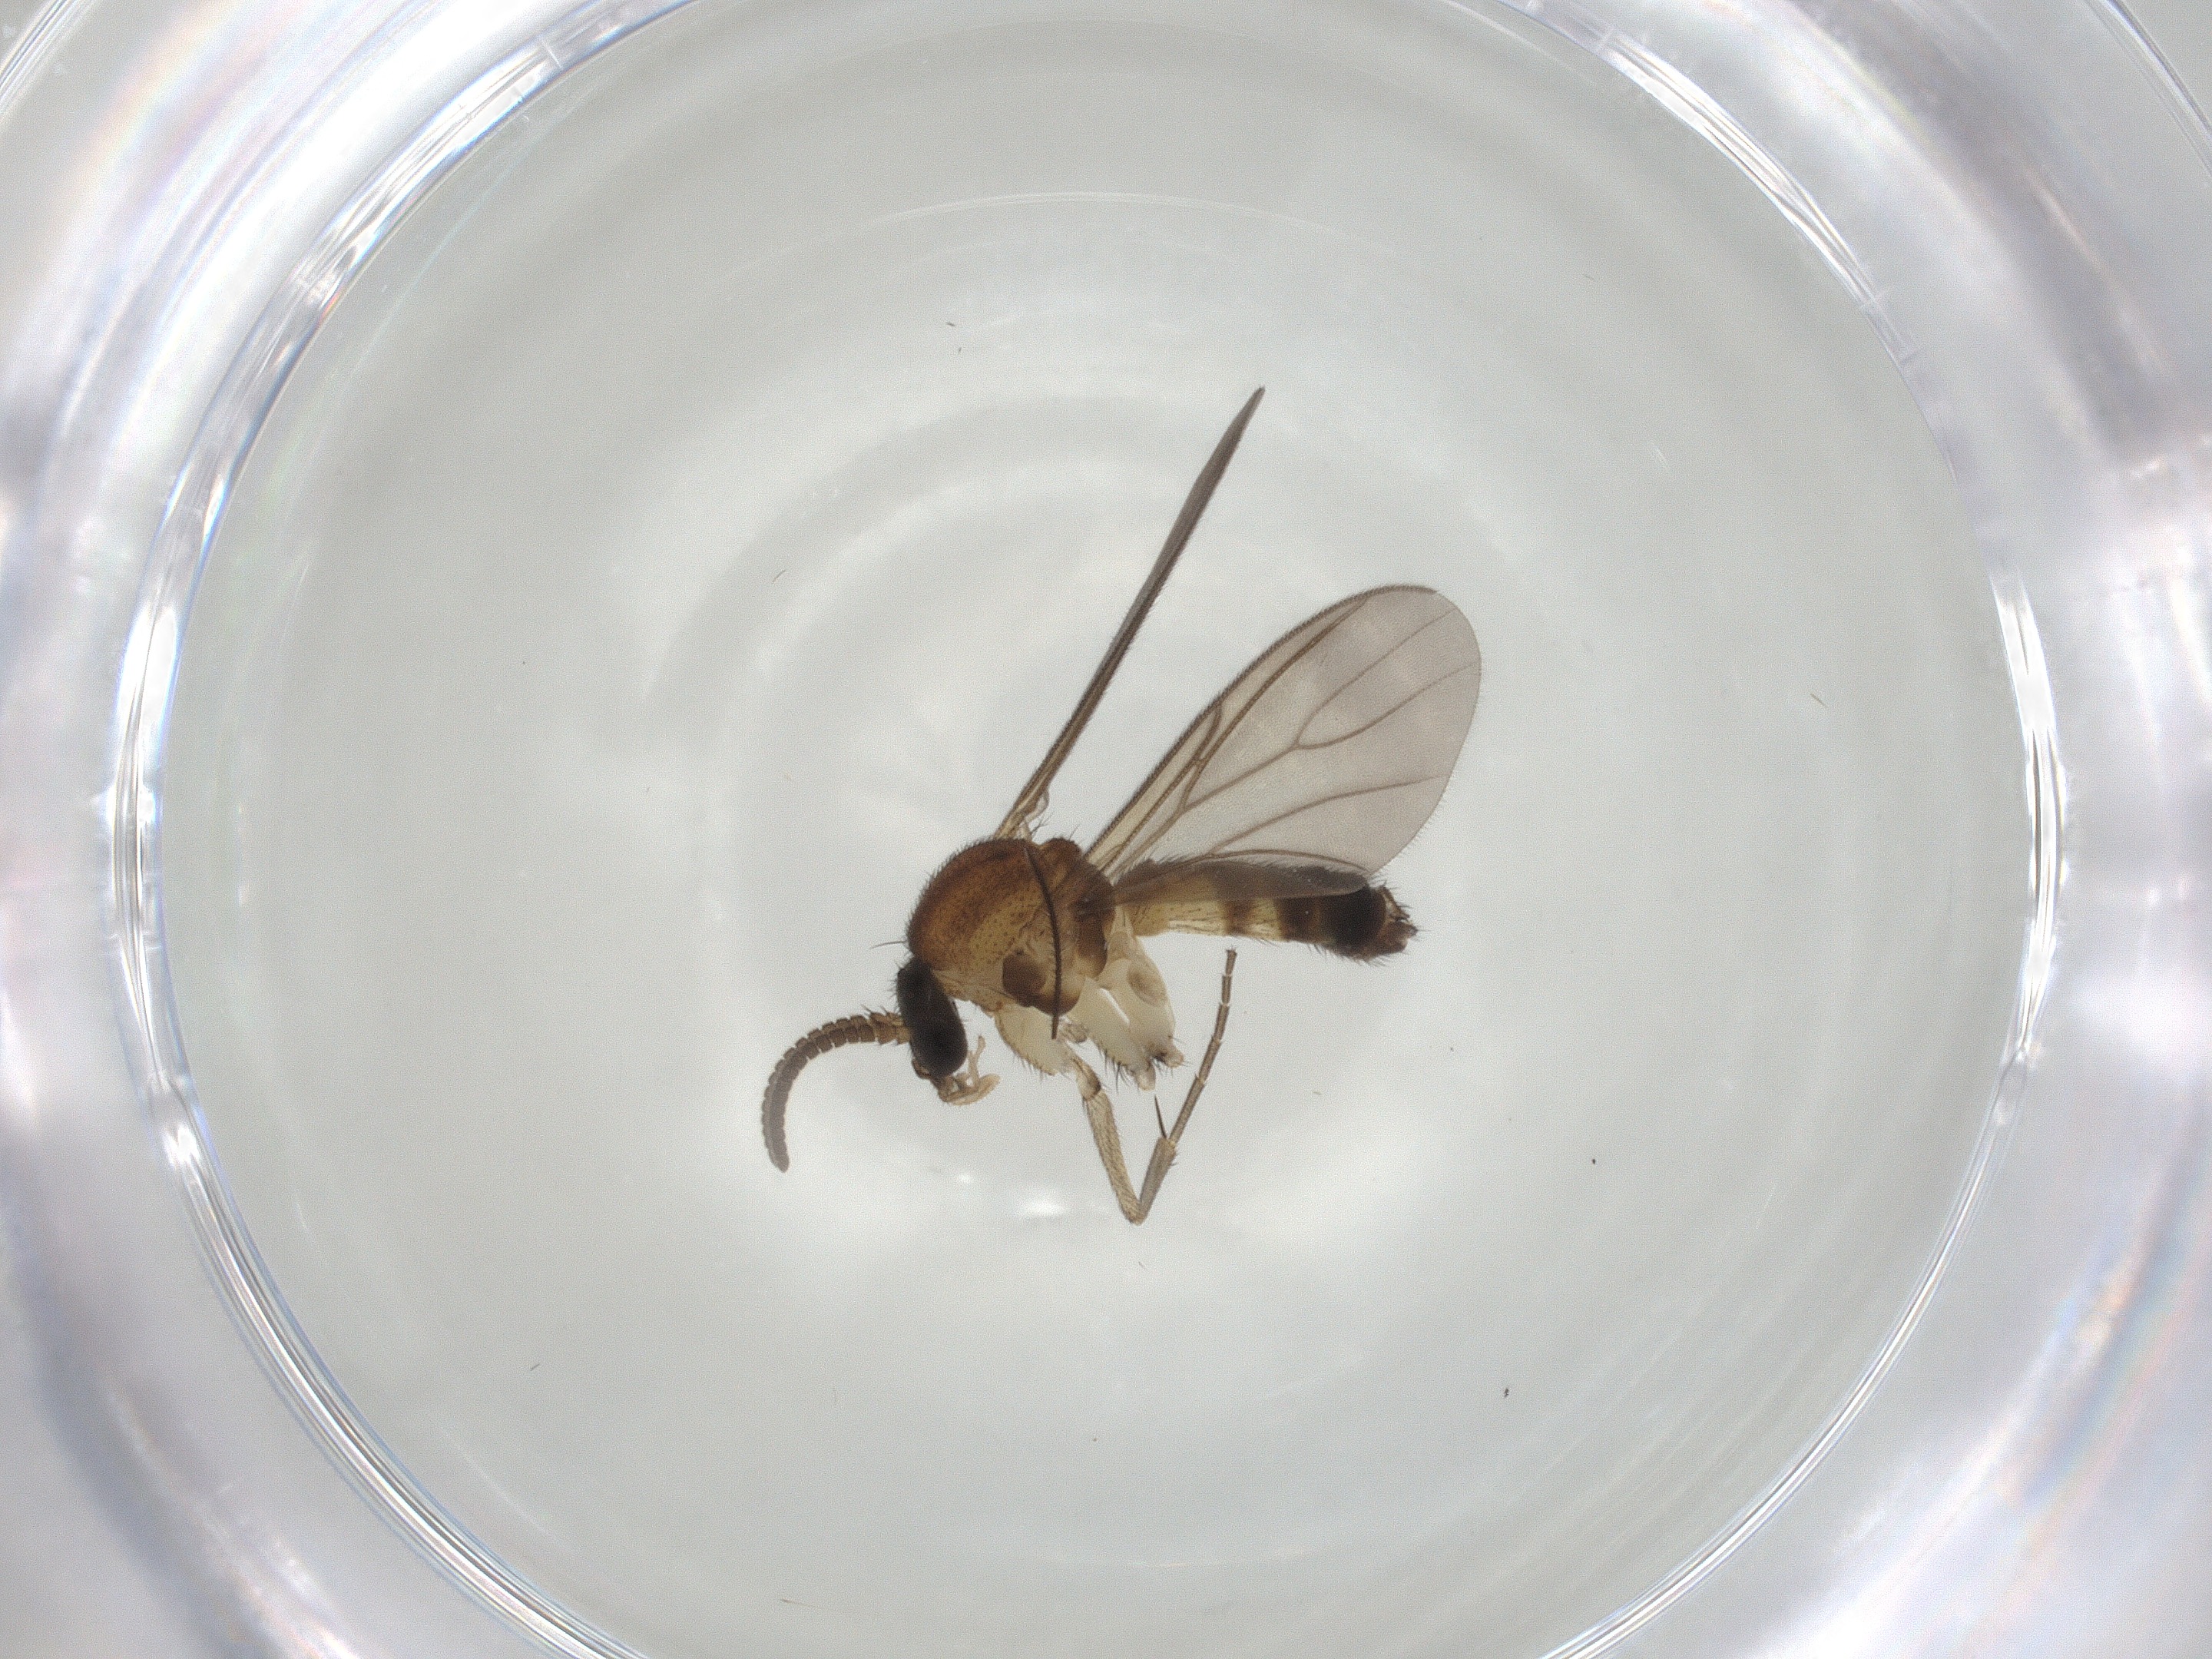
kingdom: Animalia
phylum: Arthropoda
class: Insecta
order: Diptera
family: Mycetophilidae
